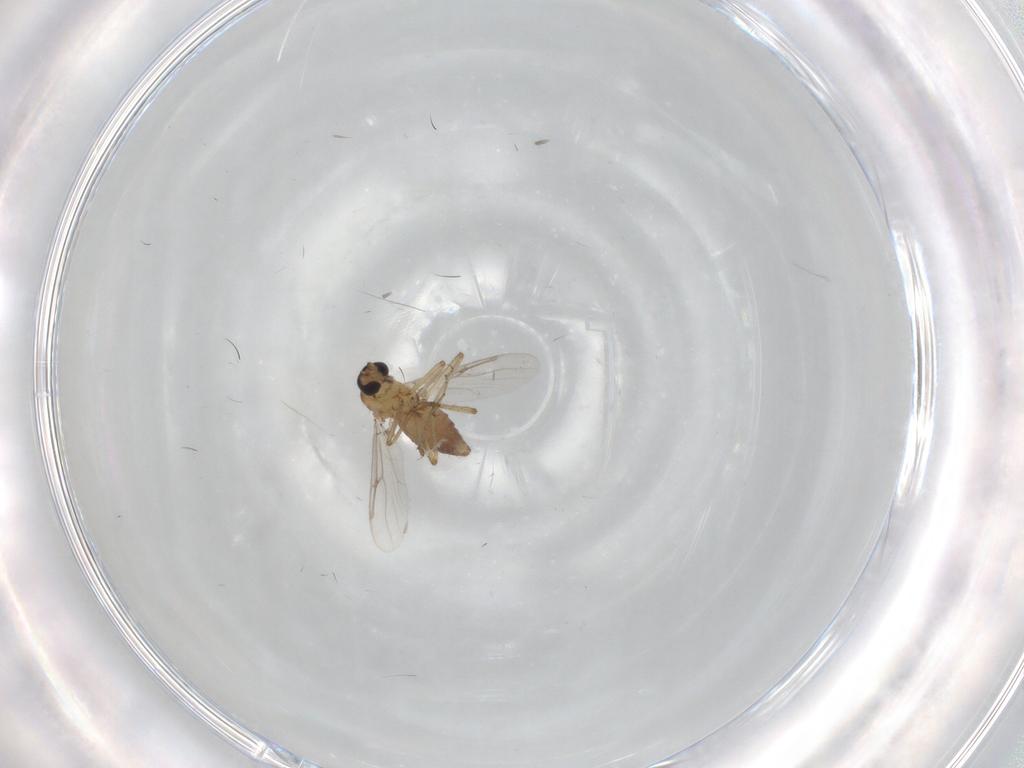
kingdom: Animalia
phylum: Arthropoda
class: Insecta
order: Diptera
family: Ceratopogonidae
